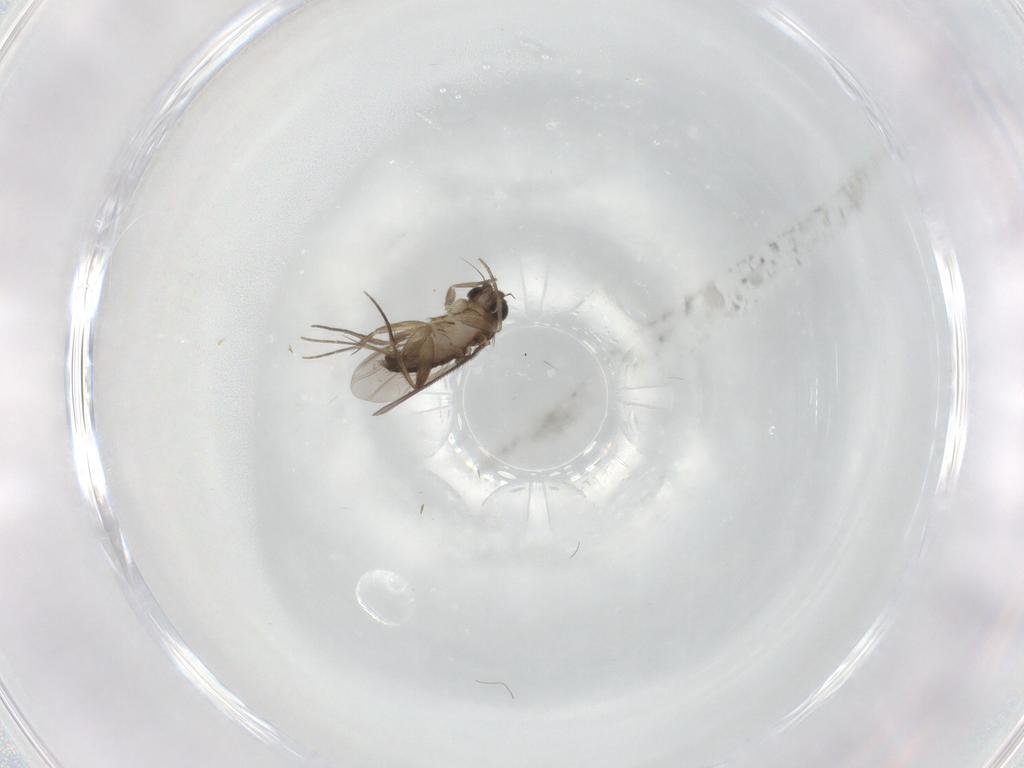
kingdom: Animalia
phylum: Arthropoda
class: Insecta
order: Diptera
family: Phoridae
